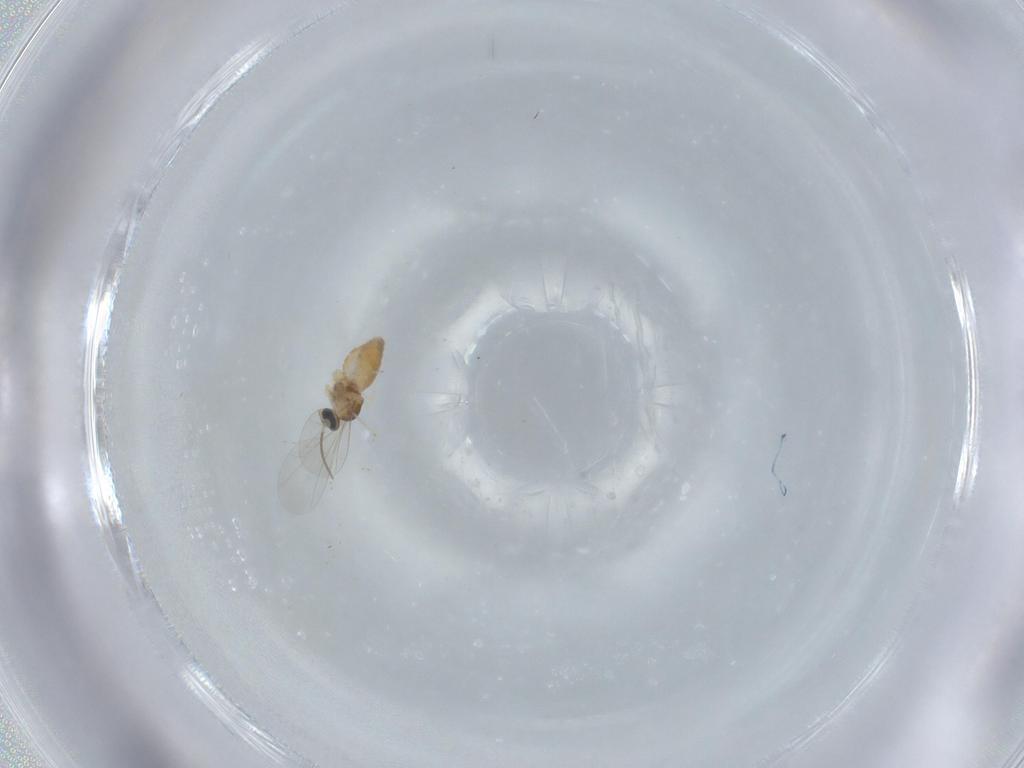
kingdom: Animalia
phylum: Arthropoda
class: Insecta
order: Diptera
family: Cecidomyiidae
